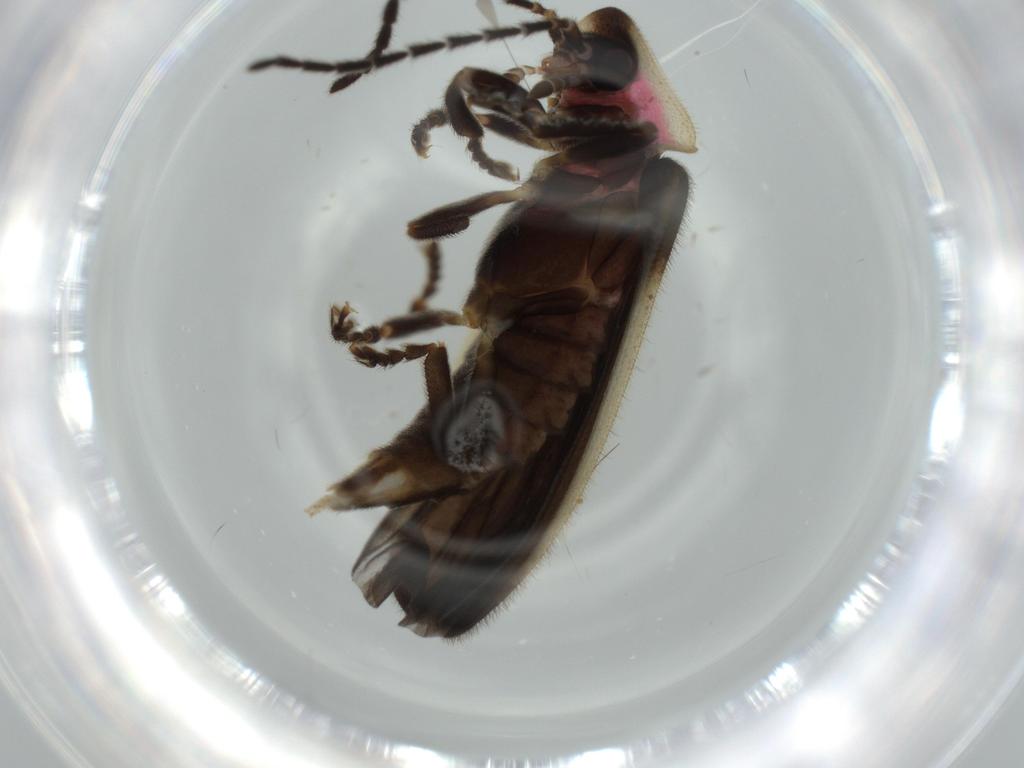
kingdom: Animalia
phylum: Arthropoda
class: Insecta
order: Coleoptera
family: Lampyridae
